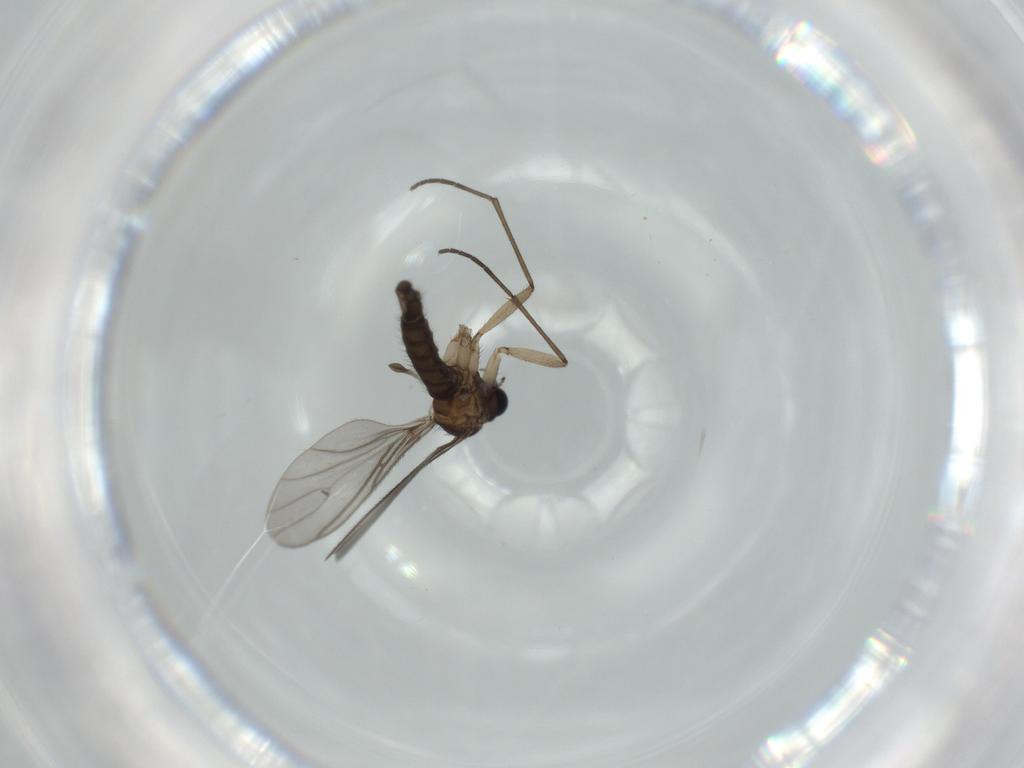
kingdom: Animalia
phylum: Arthropoda
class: Insecta
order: Diptera
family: Sciaridae
